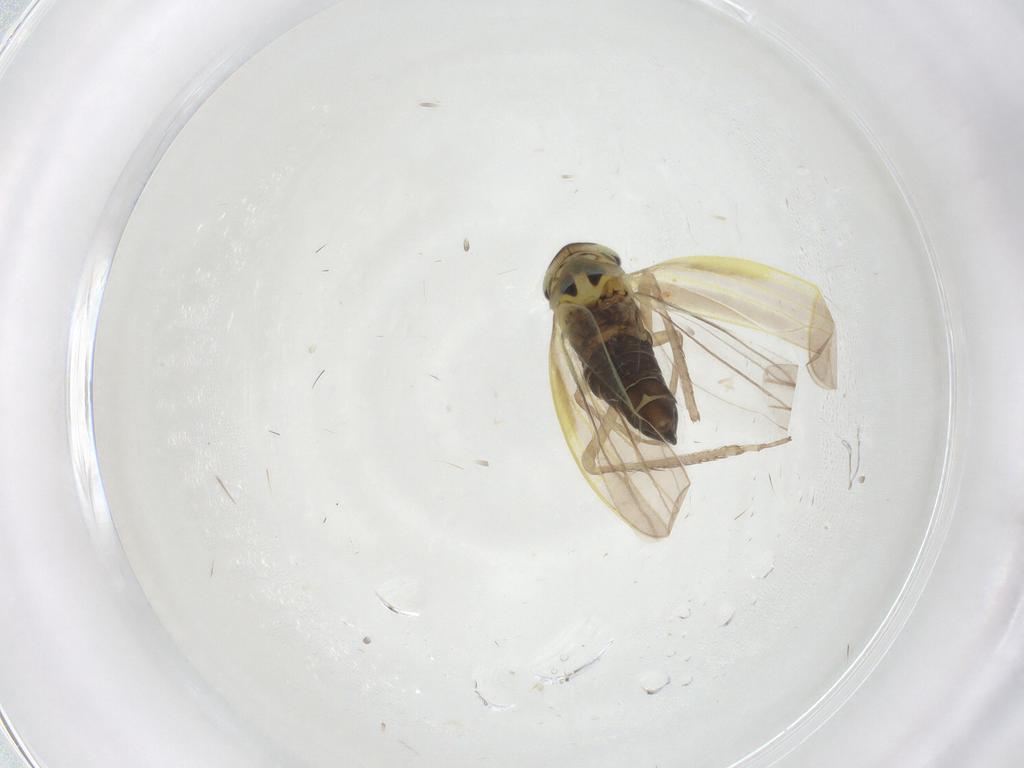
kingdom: Animalia
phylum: Arthropoda
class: Insecta
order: Hemiptera
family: Cicadellidae
